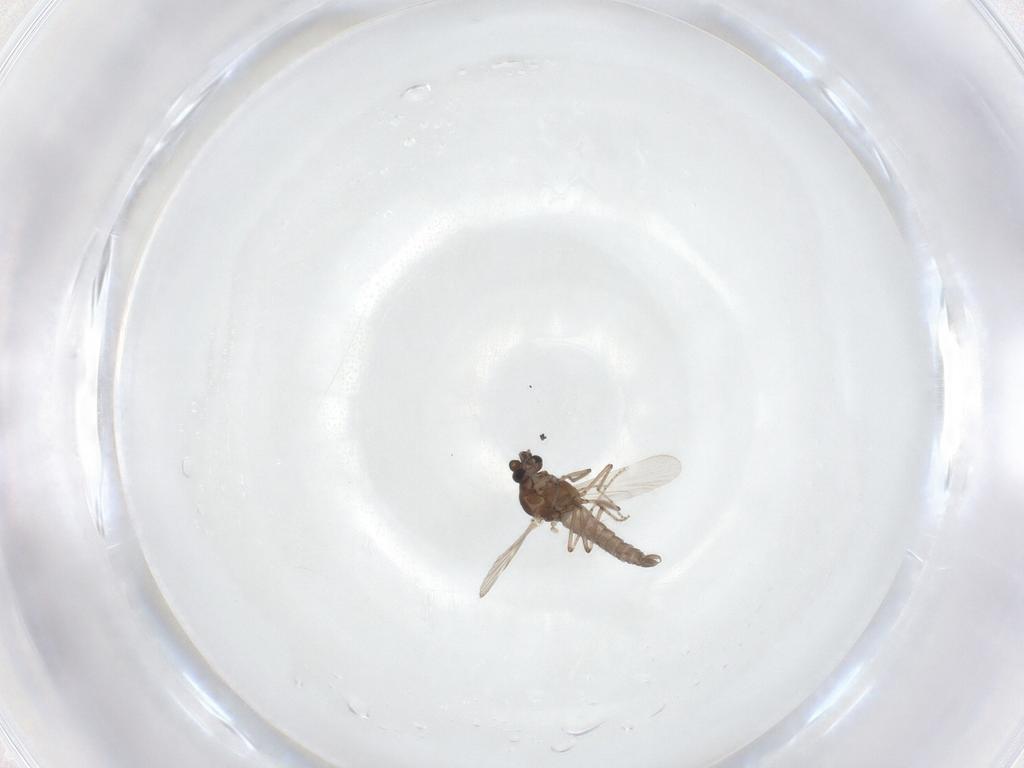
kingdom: Animalia
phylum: Arthropoda
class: Insecta
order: Diptera
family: Ceratopogonidae
